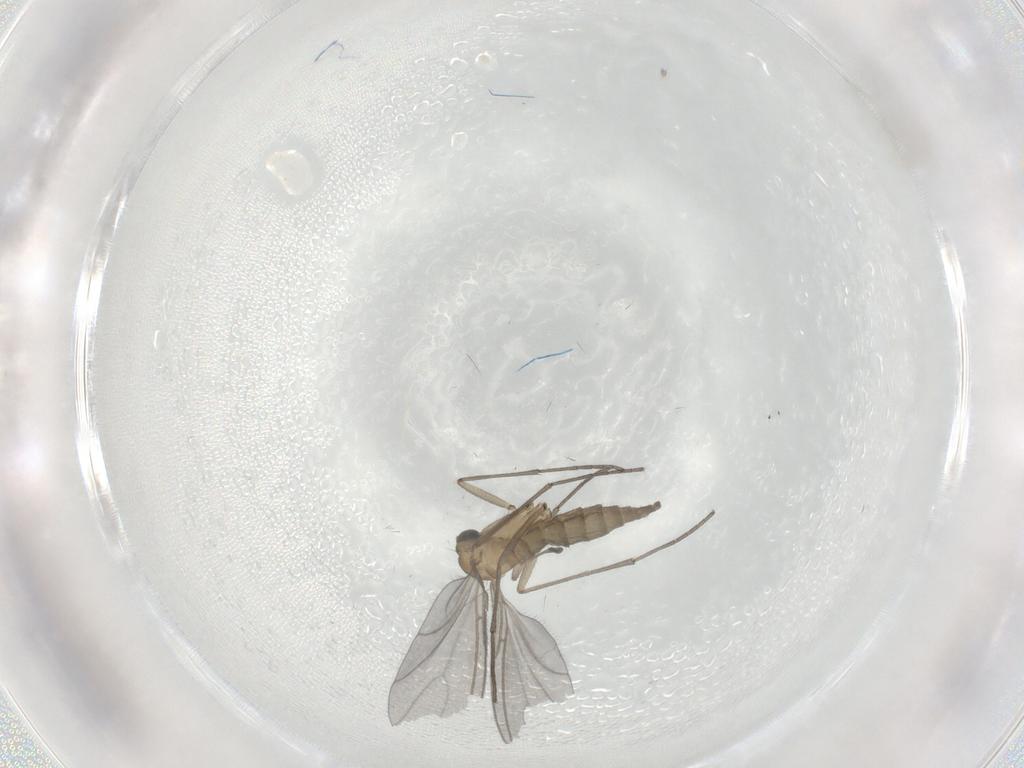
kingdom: Animalia
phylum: Arthropoda
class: Insecta
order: Diptera
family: Sciaridae
